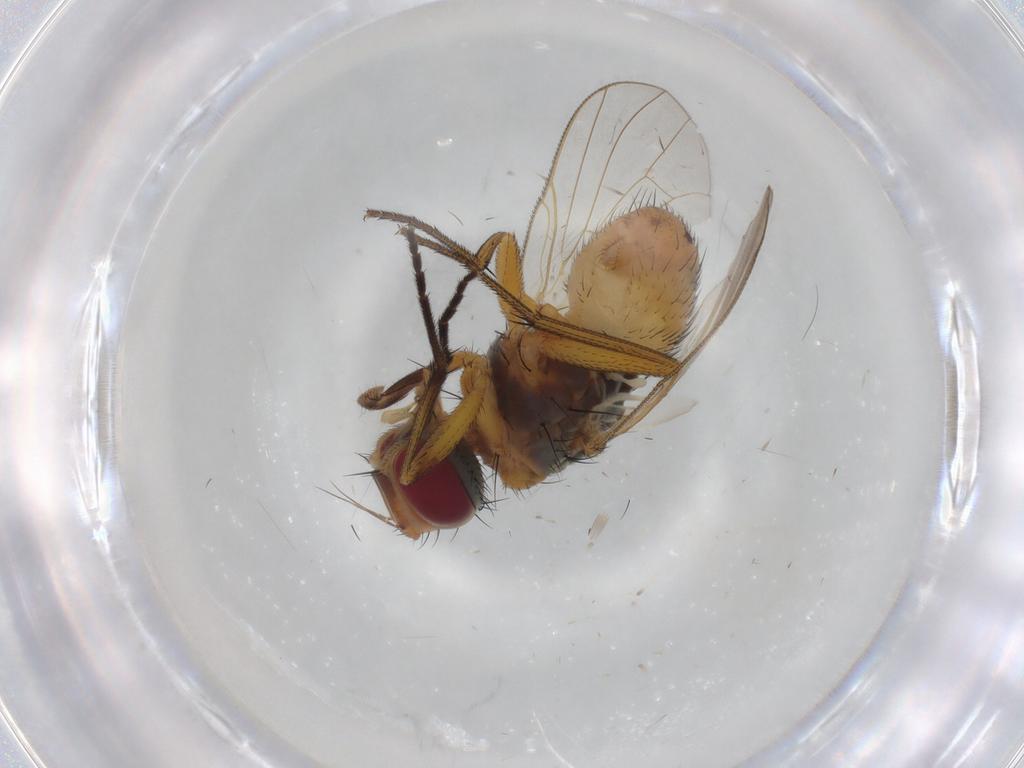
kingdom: Animalia
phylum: Arthropoda
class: Insecta
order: Diptera
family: Muscidae
